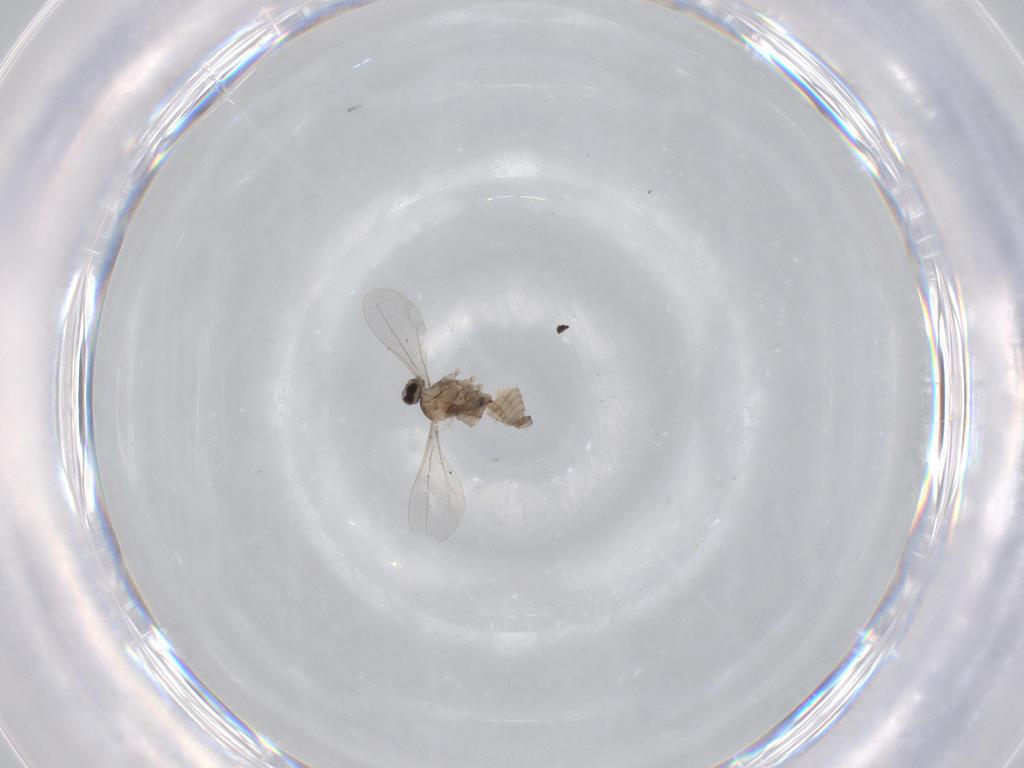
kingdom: Animalia
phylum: Arthropoda
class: Insecta
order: Diptera
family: Cecidomyiidae
